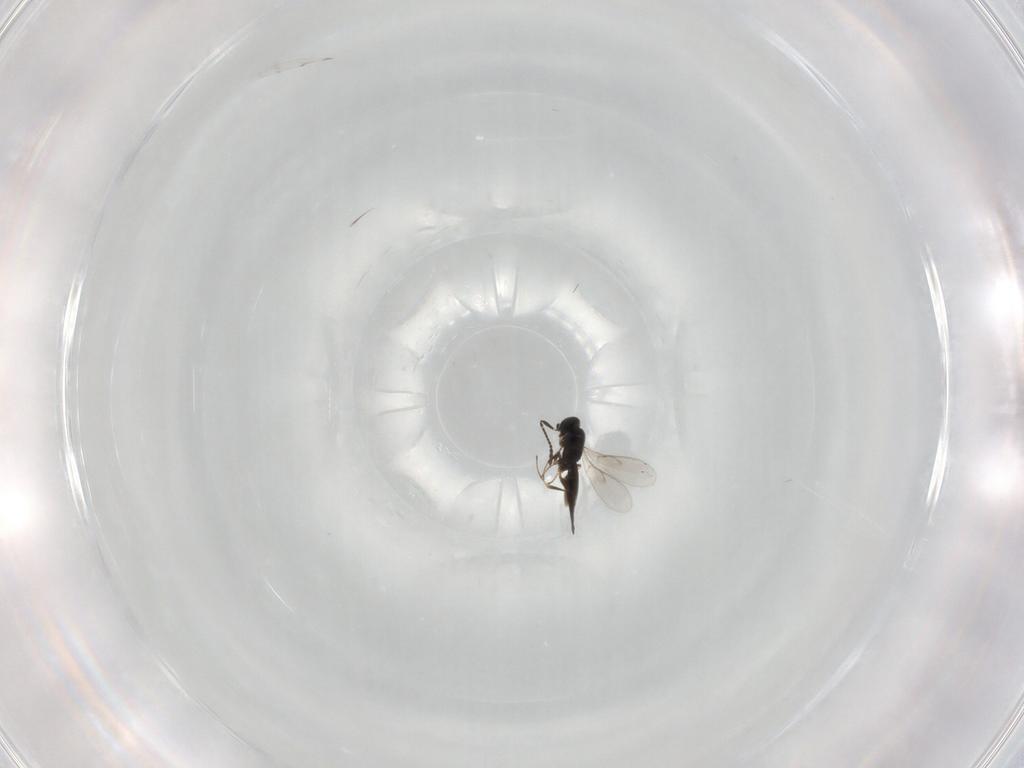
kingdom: Animalia
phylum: Arthropoda
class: Insecta
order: Hymenoptera
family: Scelionidae
